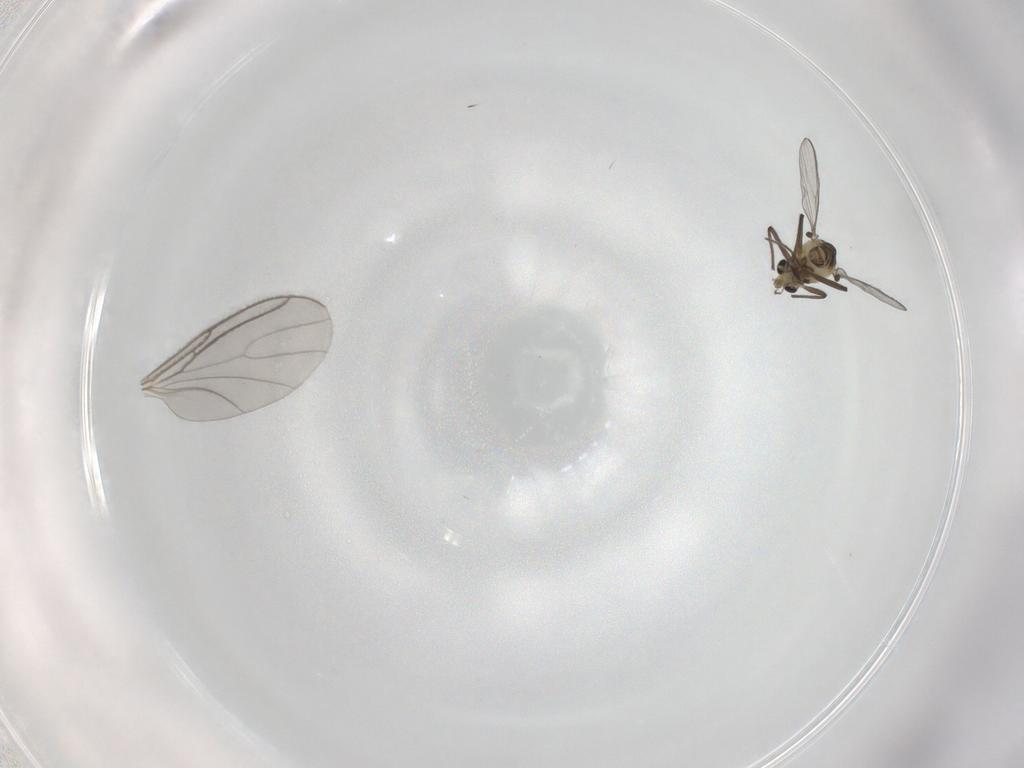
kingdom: Animalia
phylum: Arthropoda
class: Insecta
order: Diptera
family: Sciaridae
